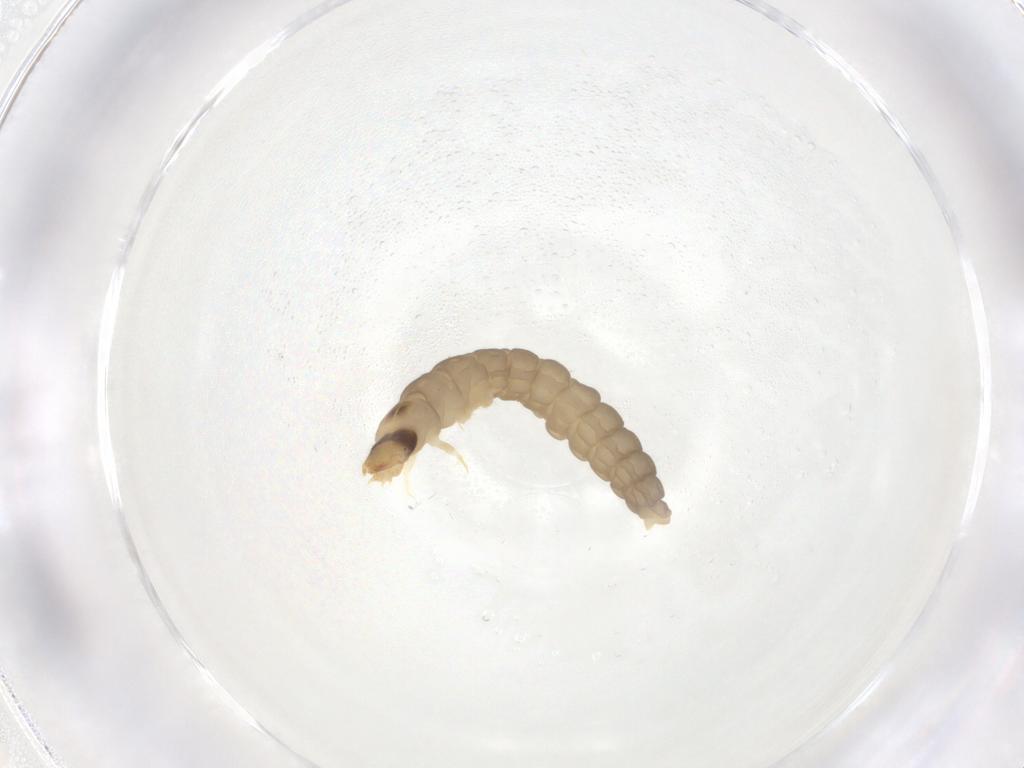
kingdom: Animalia
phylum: Arthropoda
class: Insecta
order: Coleoptera
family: Cantharidae
